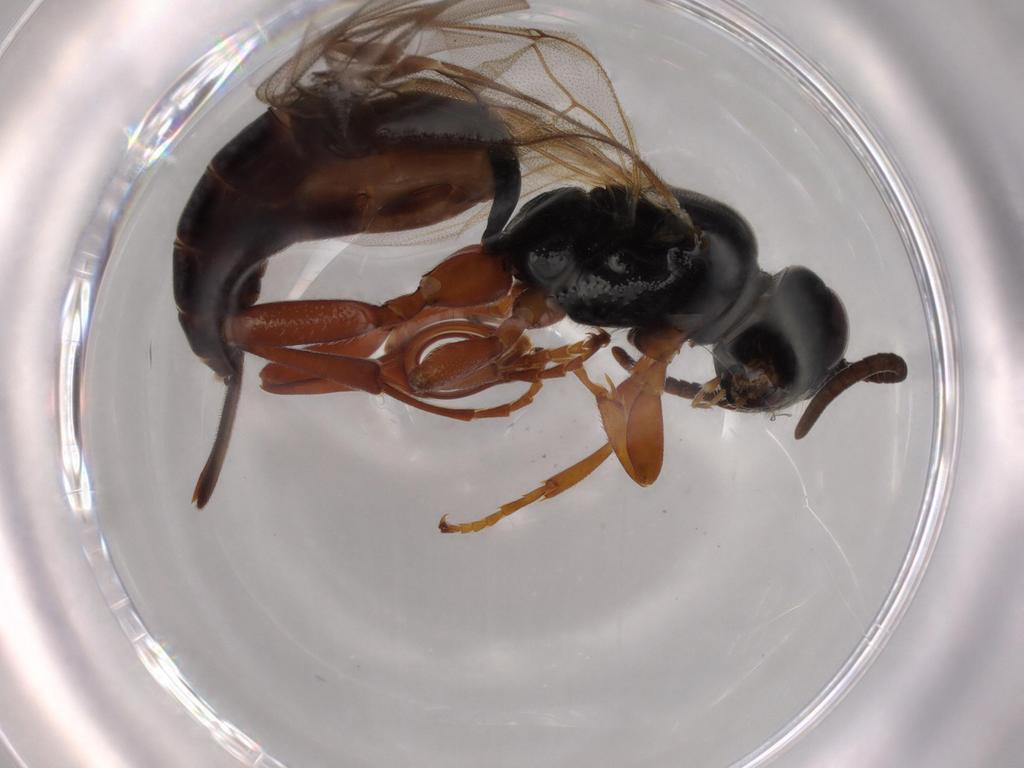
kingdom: Animalia
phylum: Arthropoda
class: Insecta
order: Hymenoptera
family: Ichneumonidae
